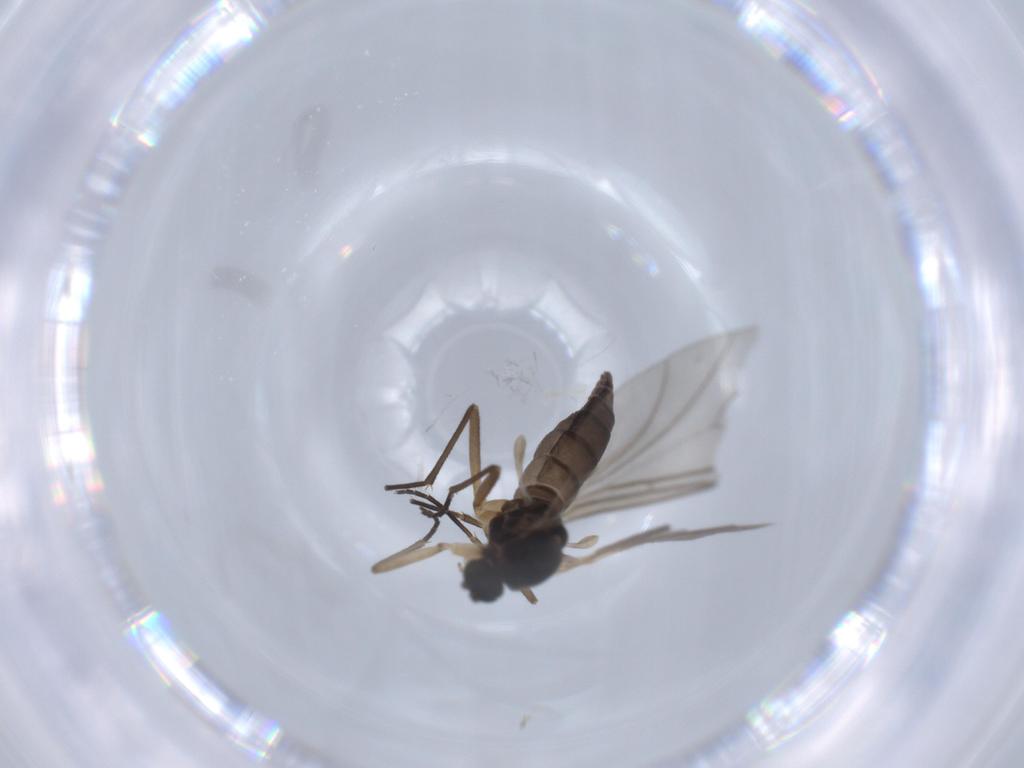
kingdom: Animalia
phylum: Arthropoda
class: Insecta
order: Diptera
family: Sciaridae
